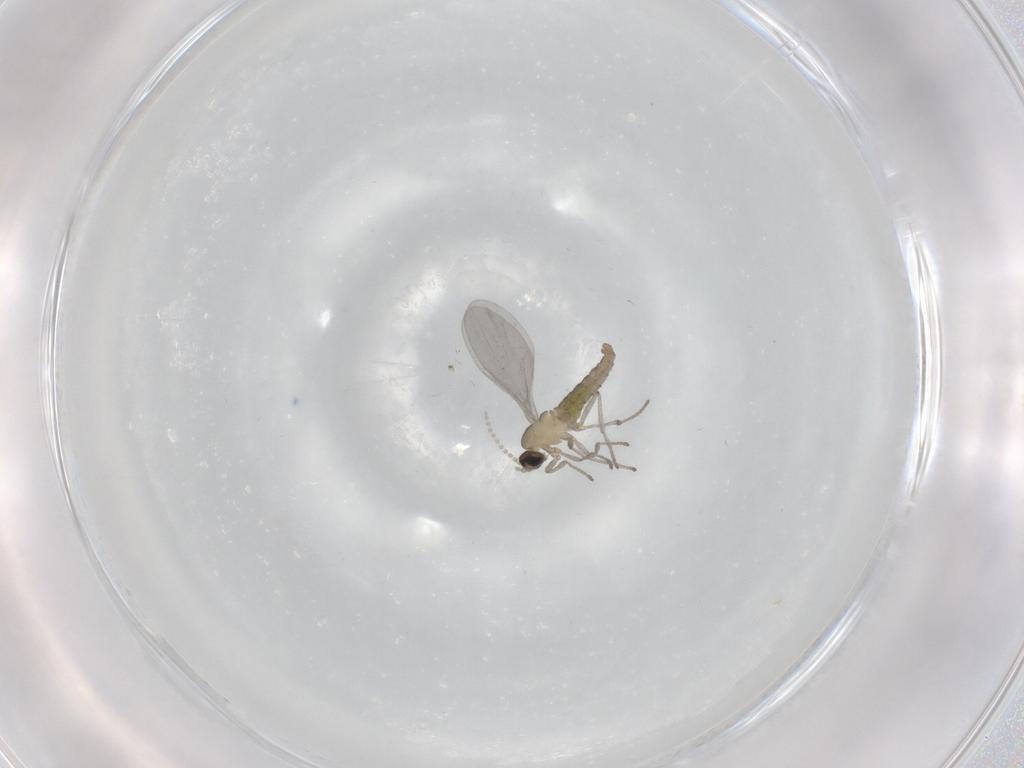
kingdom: Animalia
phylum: Arthropoda
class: Insecta
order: Diptera
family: Cecidomyiidae
